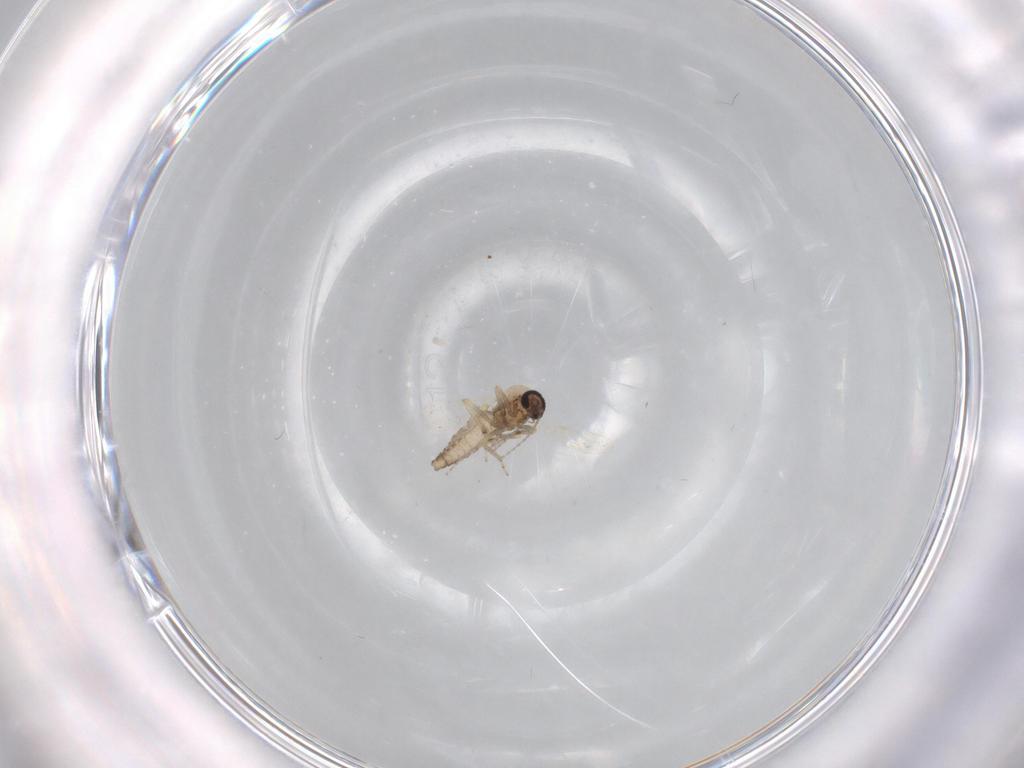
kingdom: Animalia
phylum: Arthropoda
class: Insecta
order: Diptera
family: Ceratopogonidae
